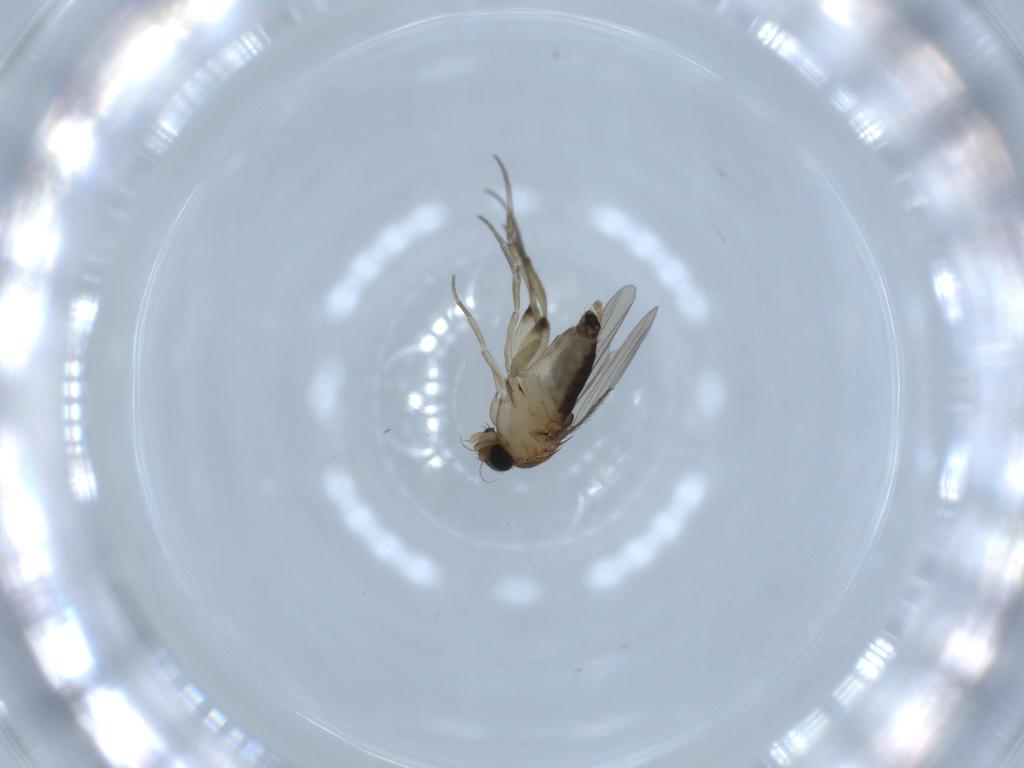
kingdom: Animalia
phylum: Arthropoda
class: Insecta
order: Diptera
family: Phoridae
